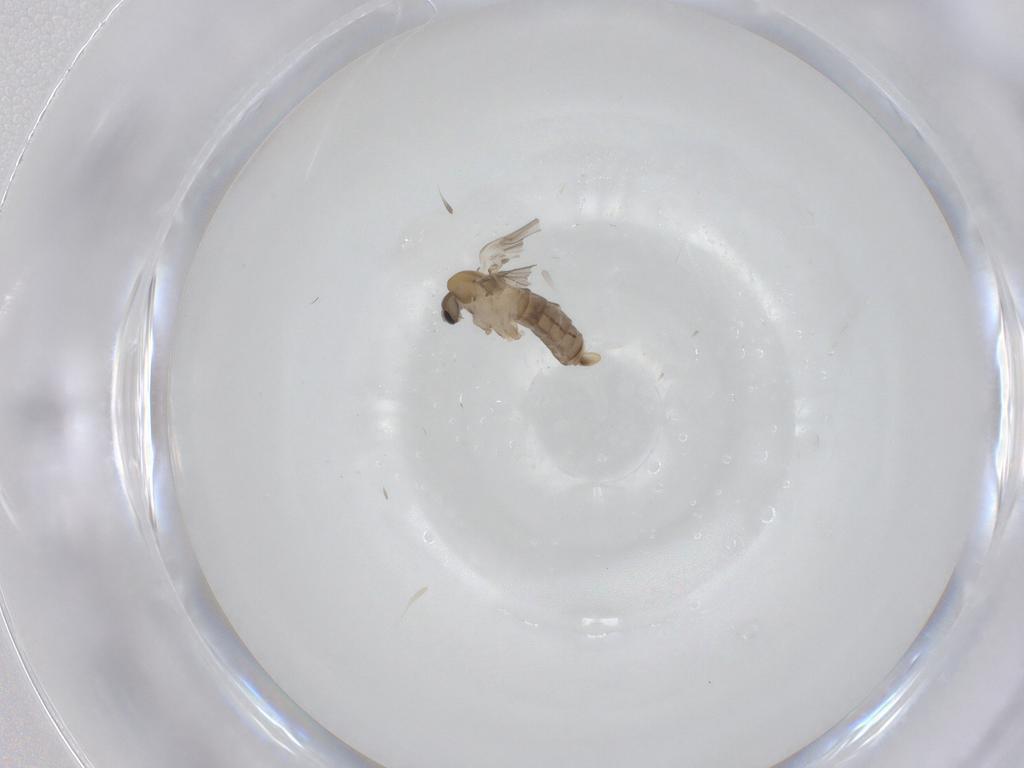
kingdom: Animalia
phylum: Arthropoda
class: Insecta
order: Diptera
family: Psychodidae
